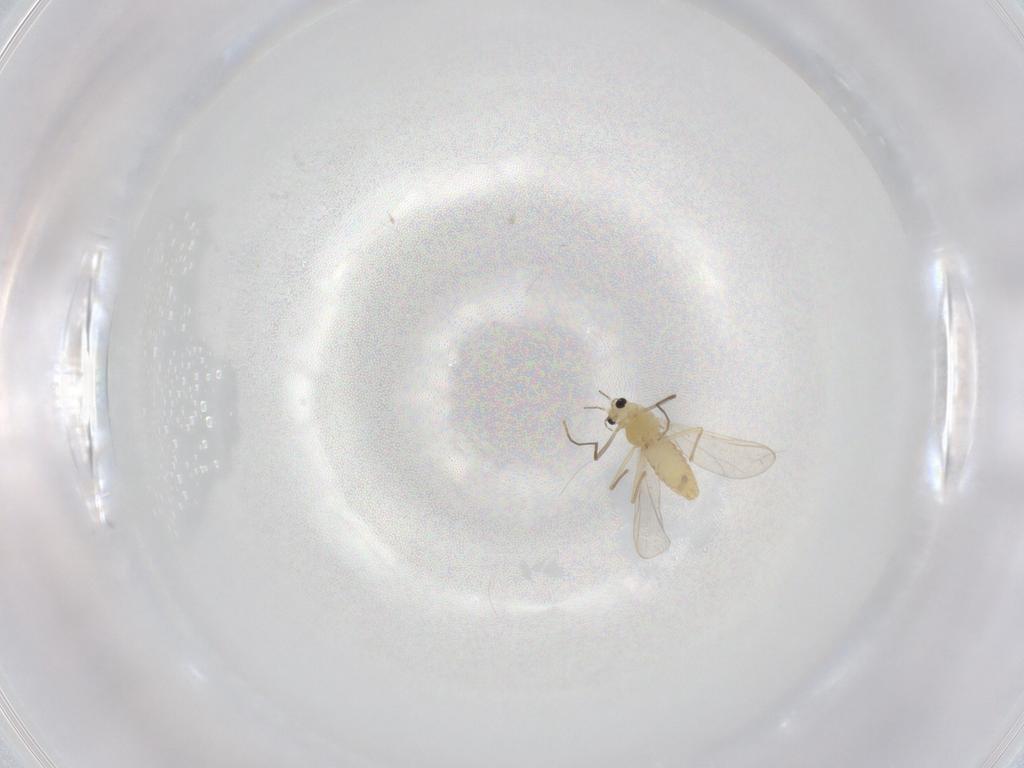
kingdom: Animalia
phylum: Arthropoda
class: Insecta
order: Diptera
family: Chironomidae
